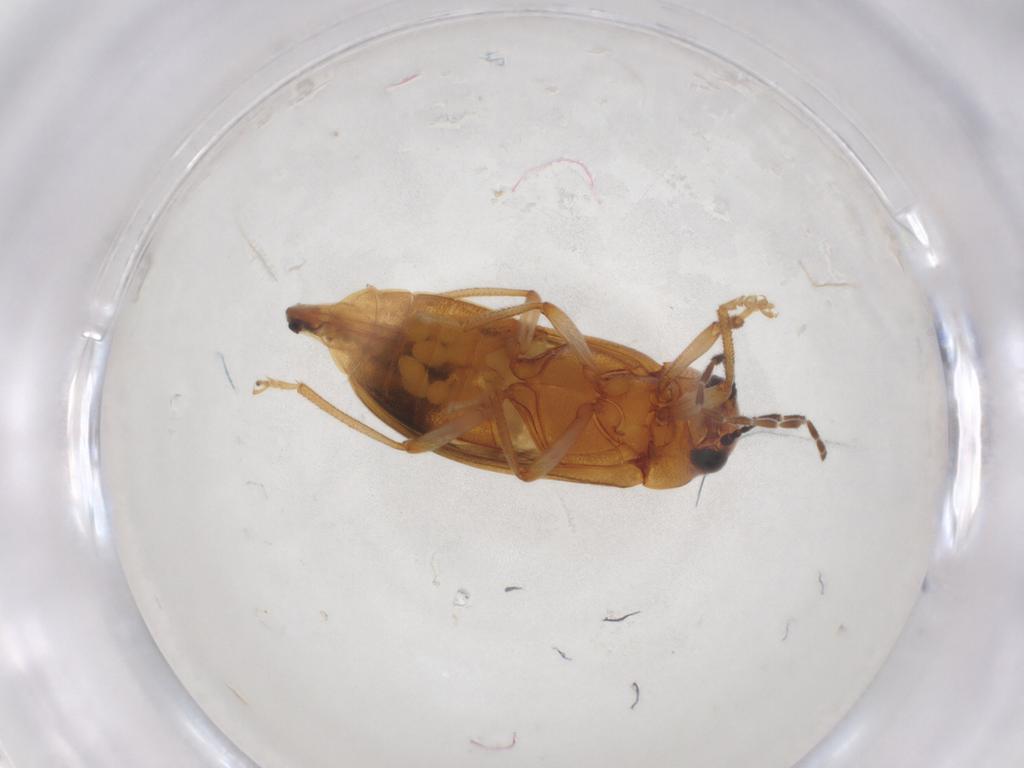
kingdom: Animalia
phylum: Arthropoda
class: Insecta
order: Coleoptera
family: Ptilodactylidae
